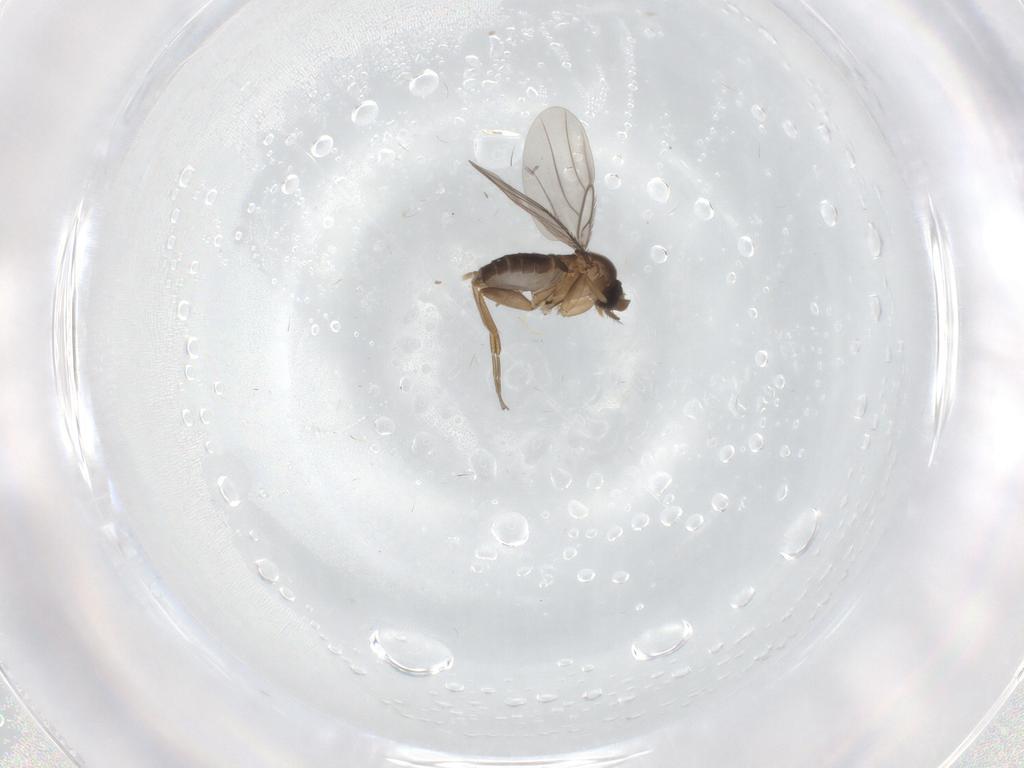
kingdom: Animalia
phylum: Arthropoda
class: Insecta
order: Diptera
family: Phoridae
